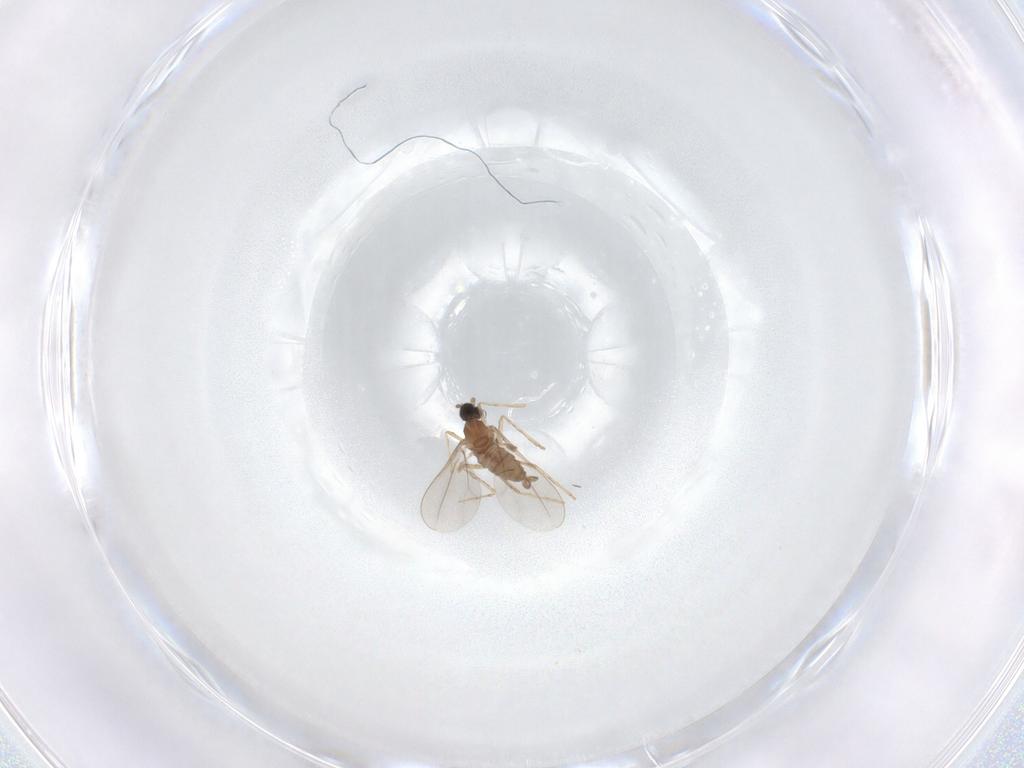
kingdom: Animalia
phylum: Arthropoda
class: Insecta
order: Diptera
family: Cecidomyiidae
